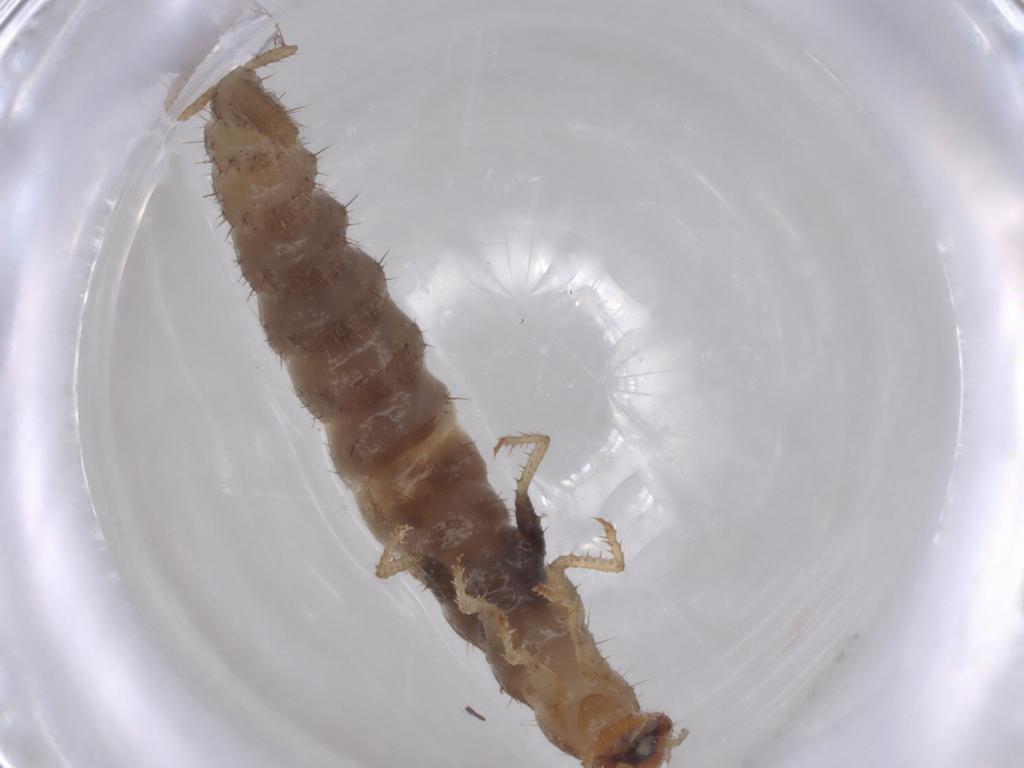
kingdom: Animalia
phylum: Arthropoda
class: Insecta
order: Coleoptera
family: Staphylinidae
